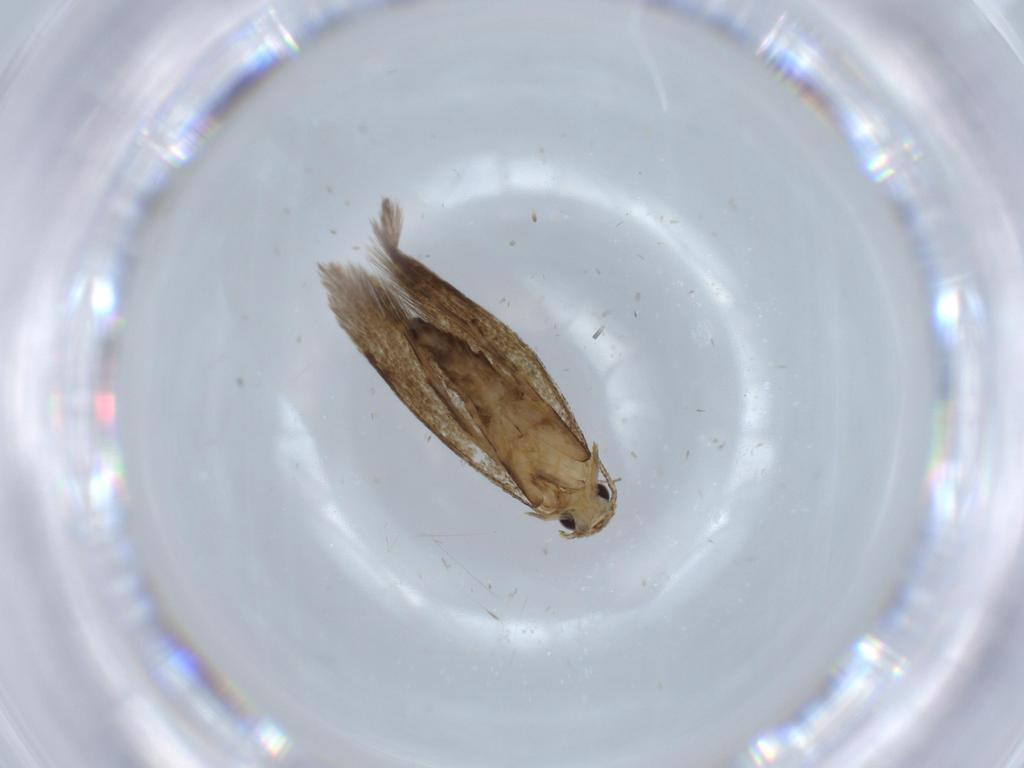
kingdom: Animalia
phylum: Arthropoda
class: Insecta
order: Lepidoptera
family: Tineidae
